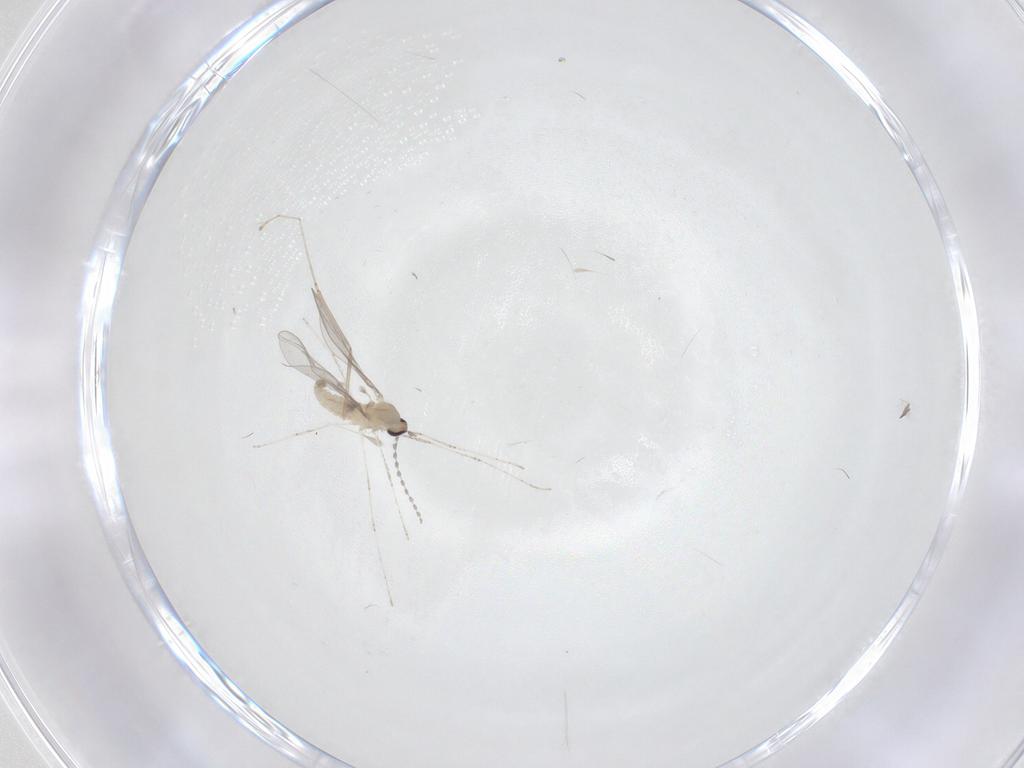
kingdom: Animalia
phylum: Arthropoda
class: Insecta
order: Diptera
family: Cecidomyiidae
